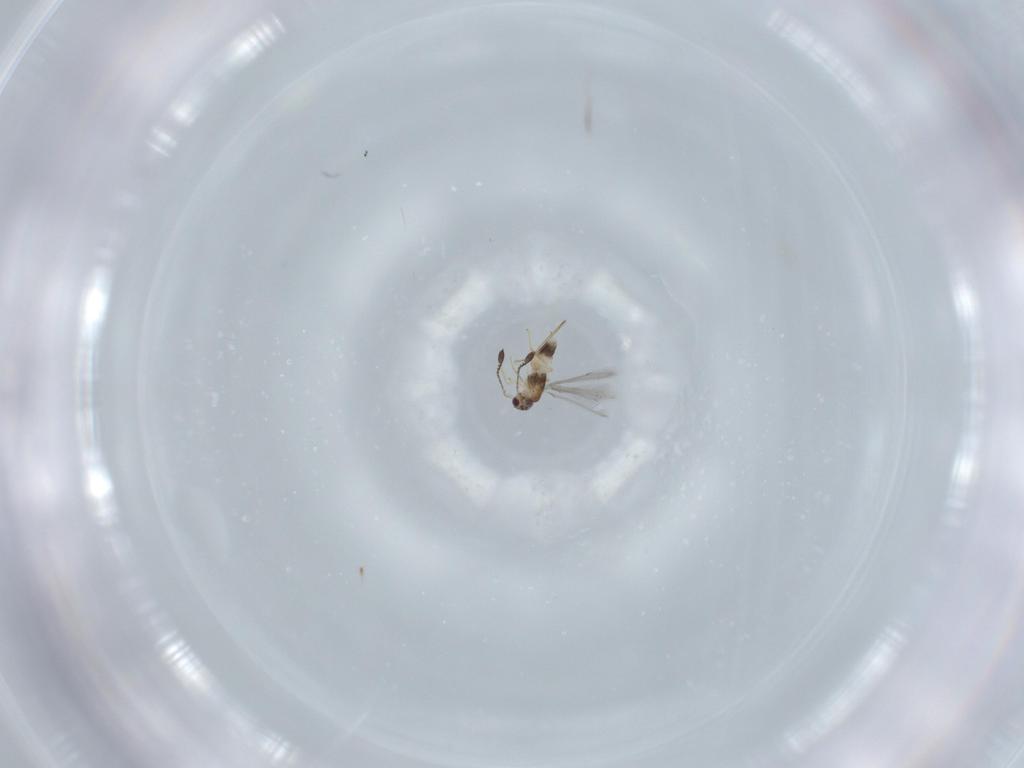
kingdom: Animalia
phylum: Arthropoda
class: Insecta
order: Hymenoptera
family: Mymaridae
